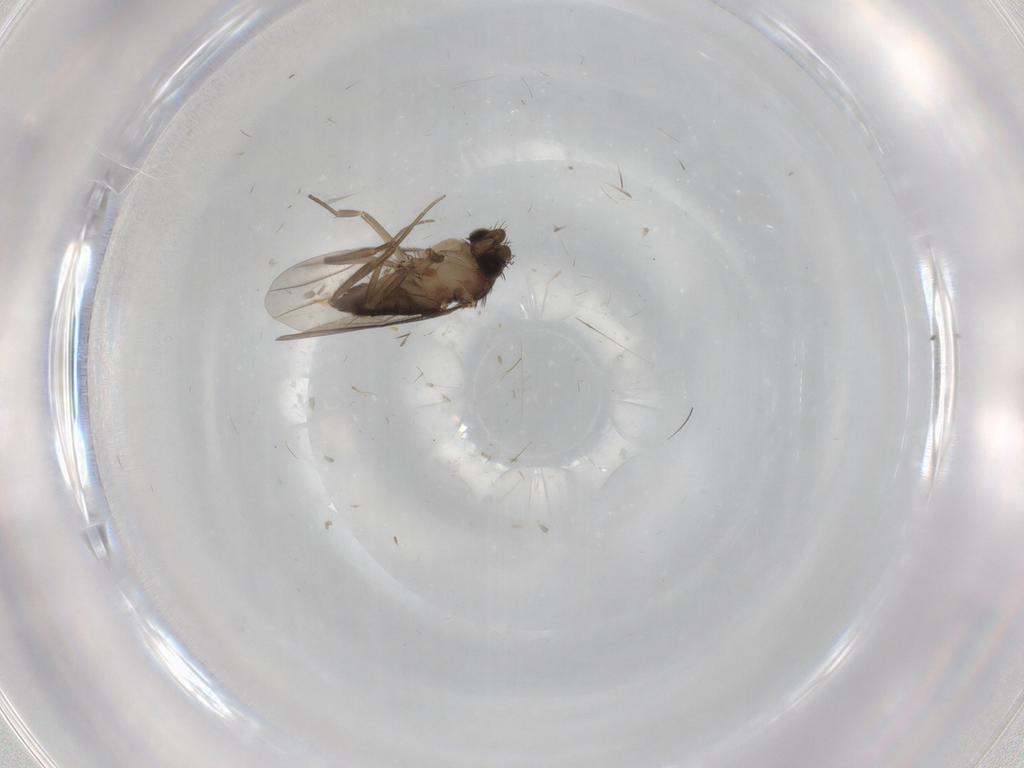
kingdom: Animalia
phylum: Arthropoda
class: Insecta
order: Diptera
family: Phoridae
